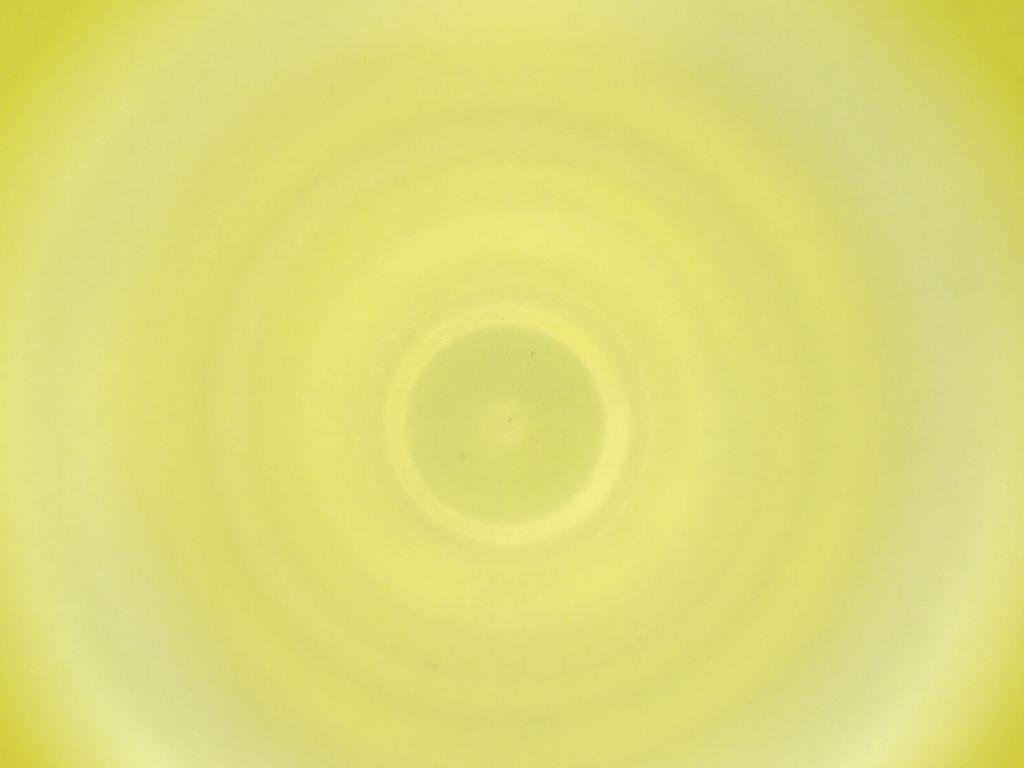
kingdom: Animalia
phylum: Arthropoda
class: Insecta
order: Diptera
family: Cecidomyiidae
